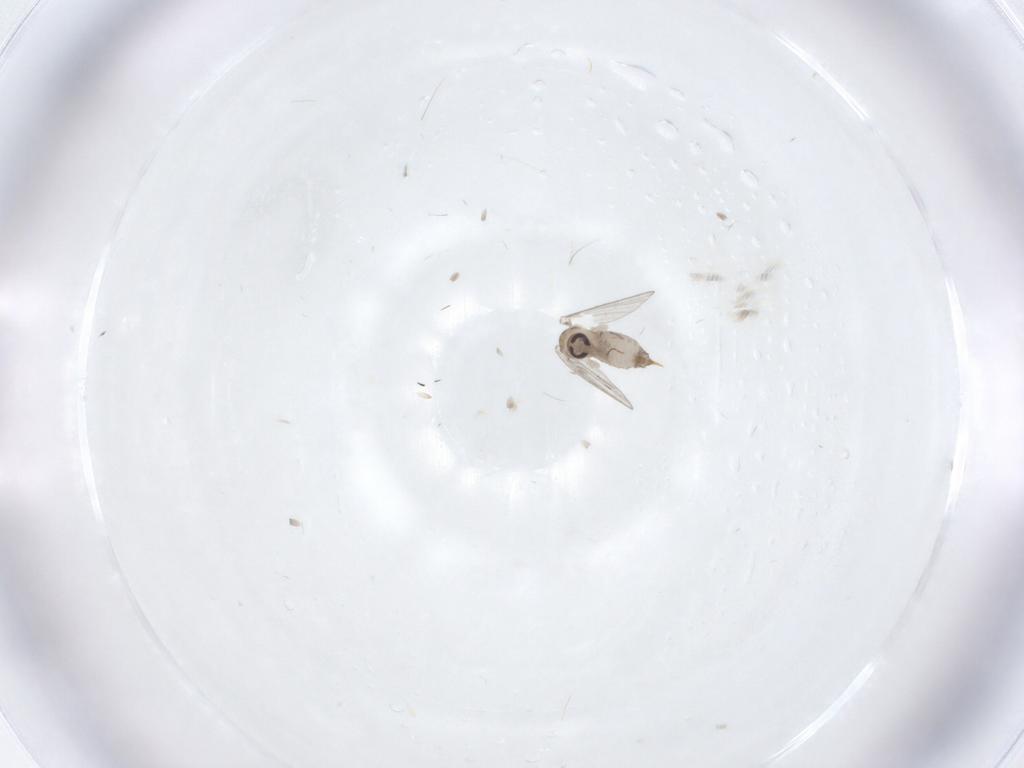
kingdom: Animalia
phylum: Arthropoda
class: Insecta
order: Diptera
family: Psychodidae
